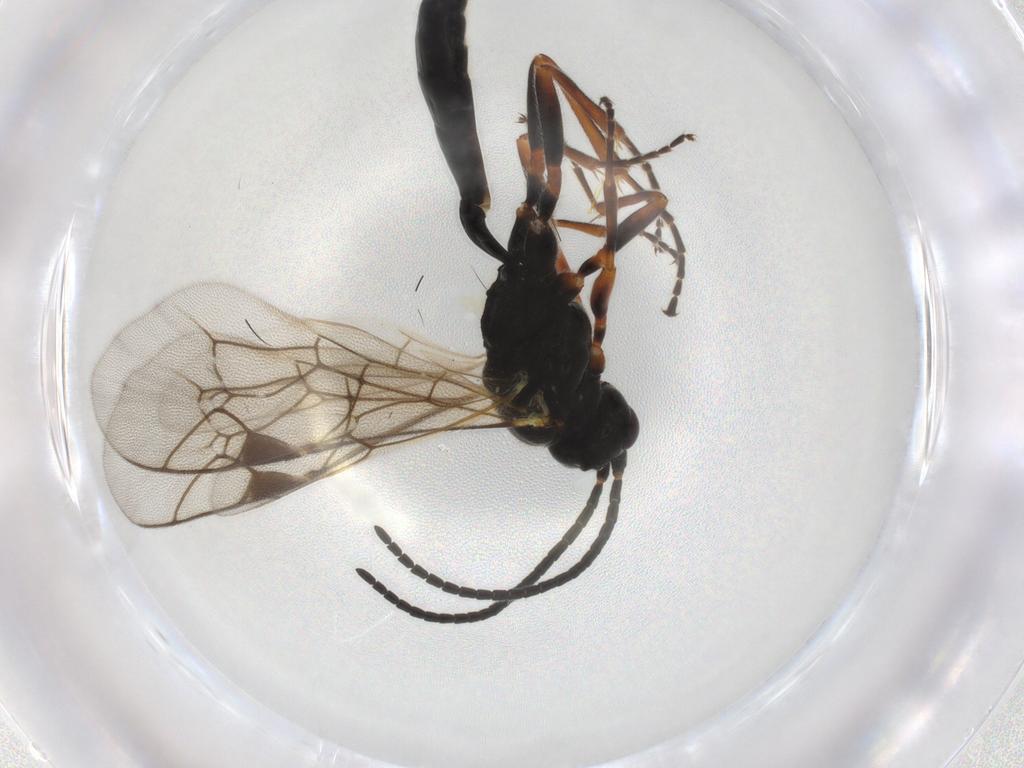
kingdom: Animalia
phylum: Arthropoda
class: Insecta
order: Hymenoptera
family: Ichneumonidae
